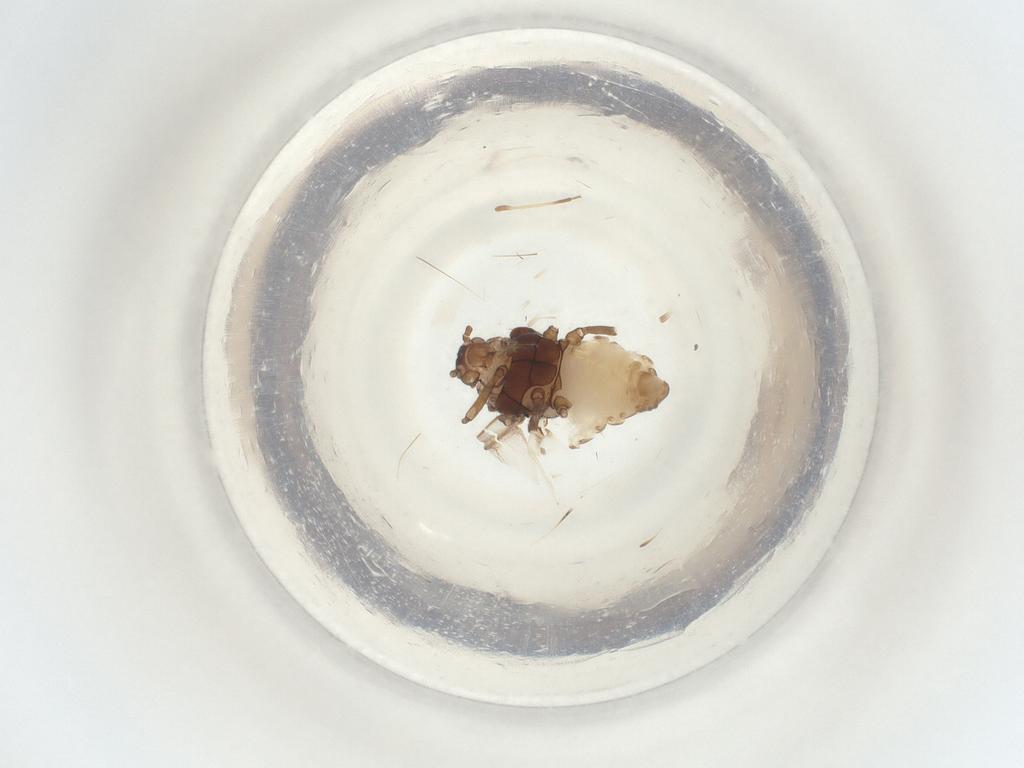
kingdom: Animalia
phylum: Arthropoda
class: Insecta
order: Hemiptera
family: Aphididae
